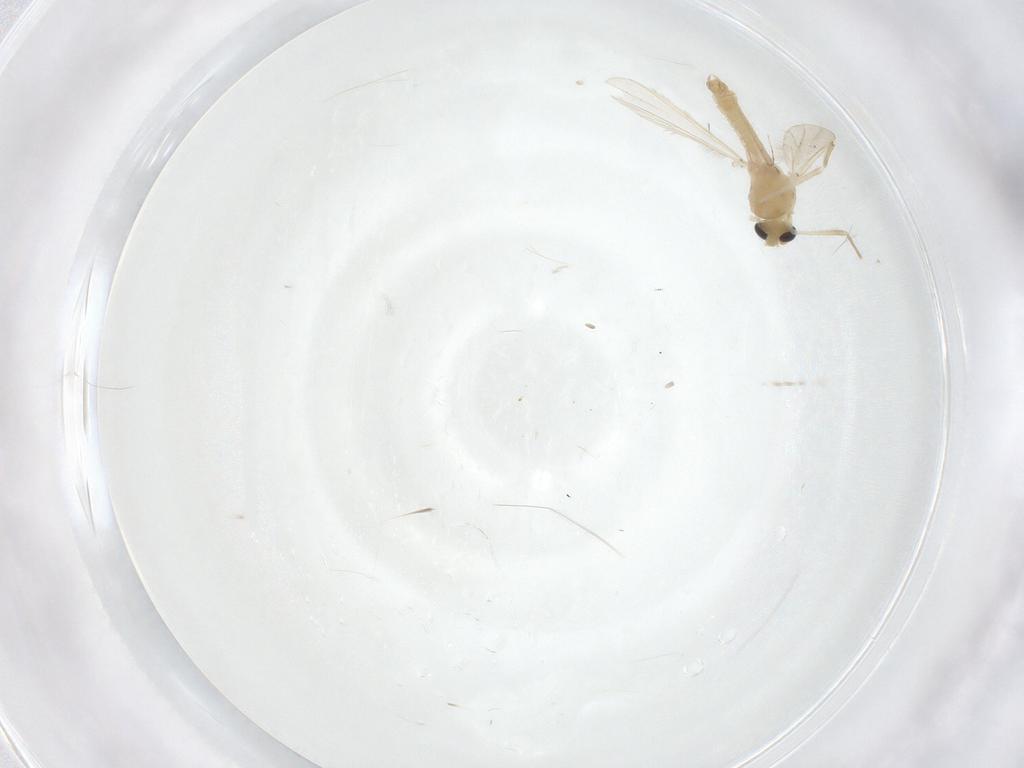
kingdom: Animalia
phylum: Arthropoda
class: Insecta
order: Diptera
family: Chironomidae
